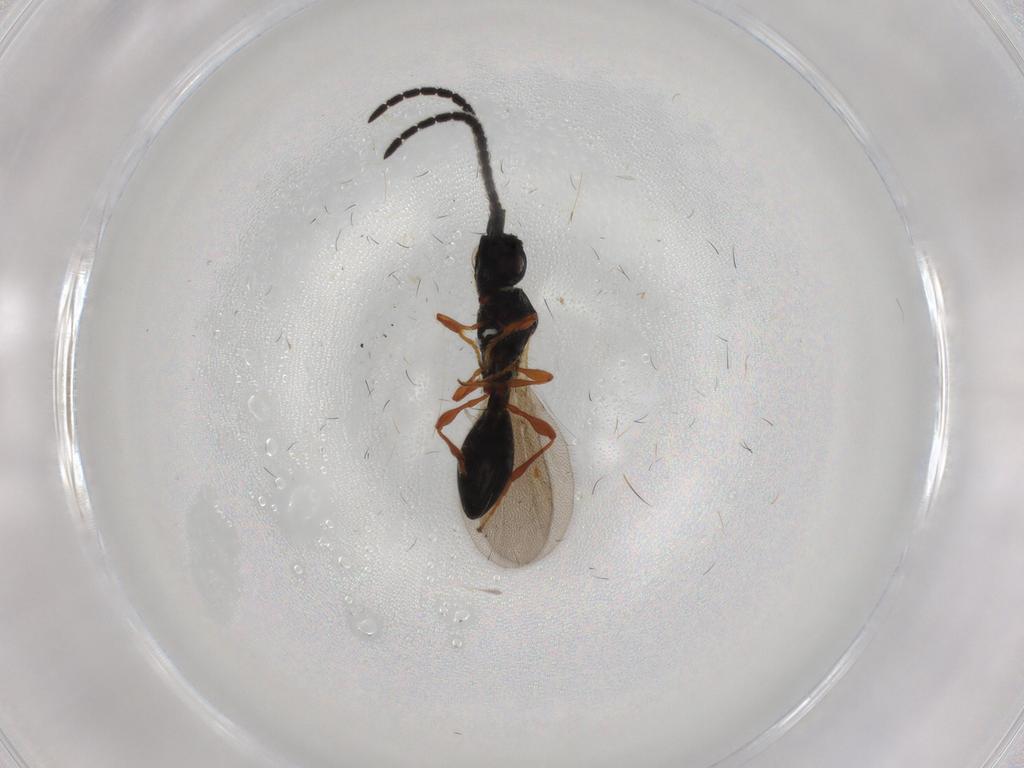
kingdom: Animalia
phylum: Arthropoda
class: Insecta
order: Hymenoptera
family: Diapriidae
